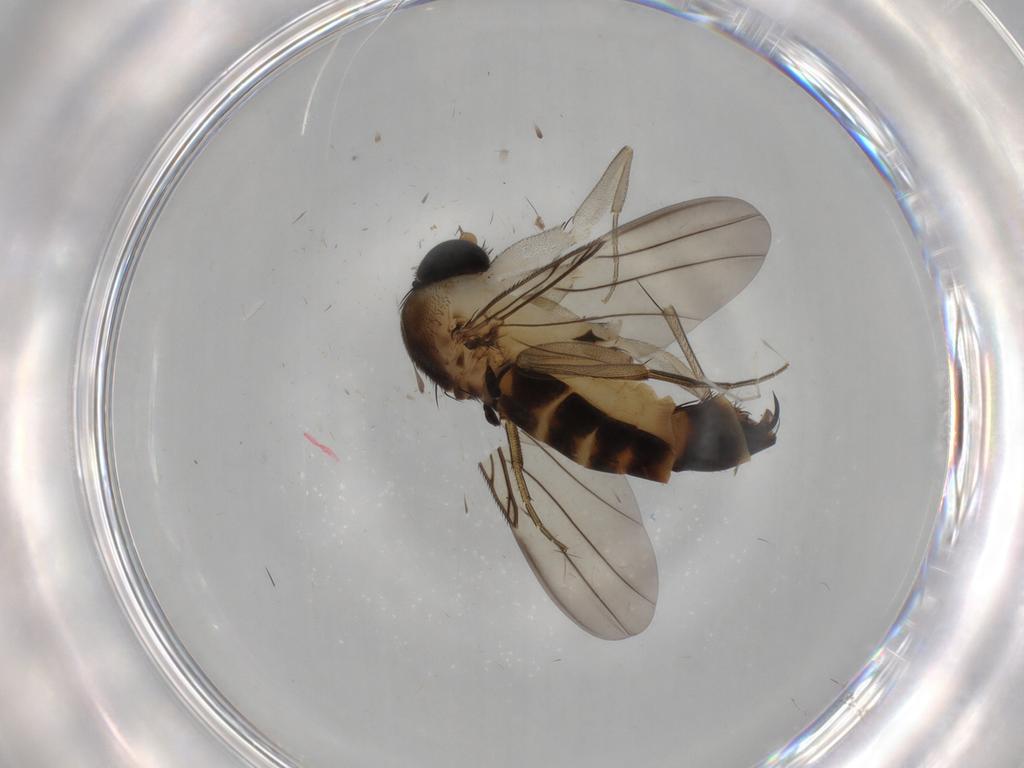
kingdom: Animalia
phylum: Arthropoda
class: Insecta
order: Diptera
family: Phoridae
